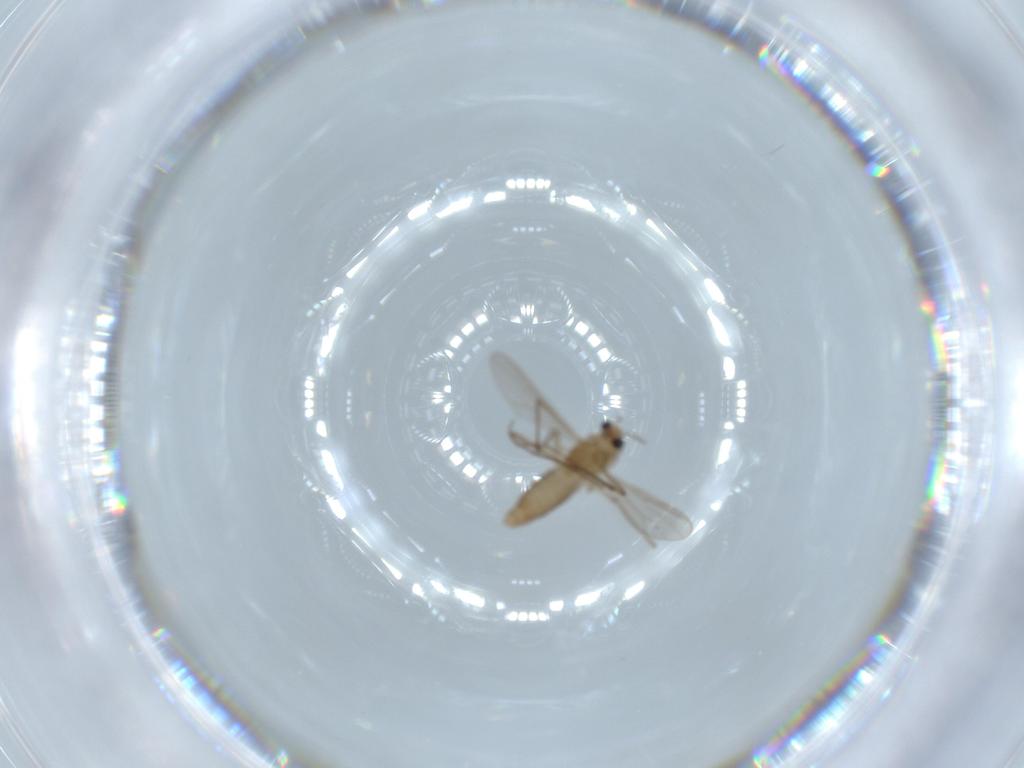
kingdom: Animalia
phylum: Arthropoda
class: Insecta
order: Diptera
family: Chironomidae
